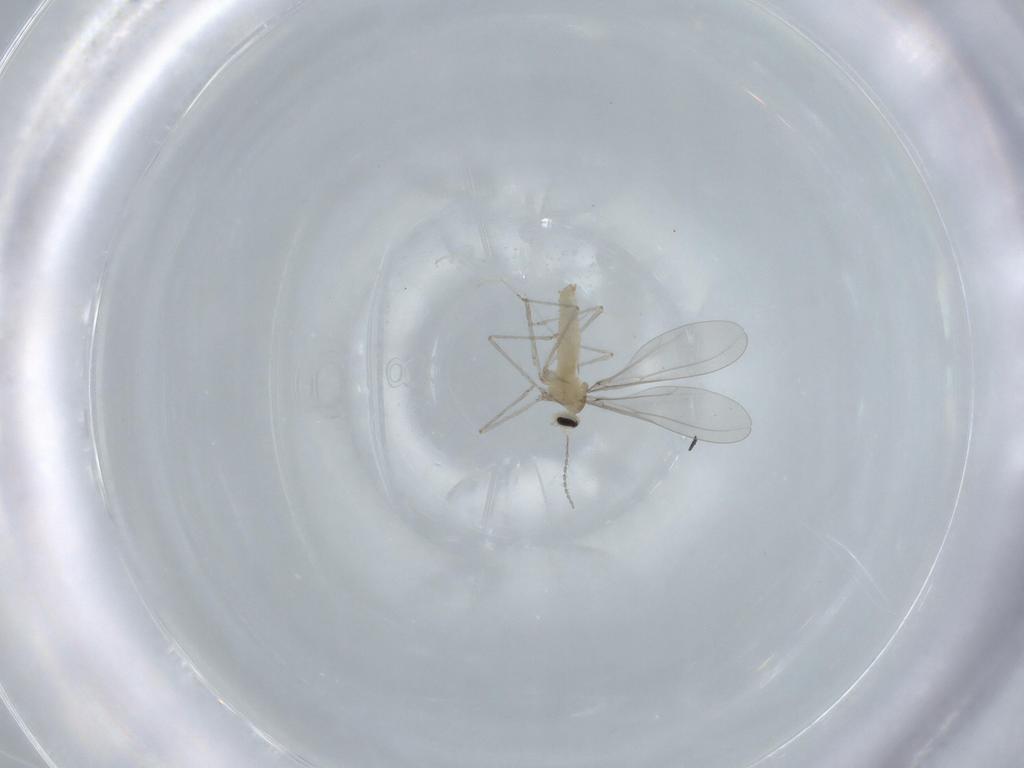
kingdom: Animalia
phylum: Arthropoda
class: Insecta
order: Diptera
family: Cecidomyiidae
